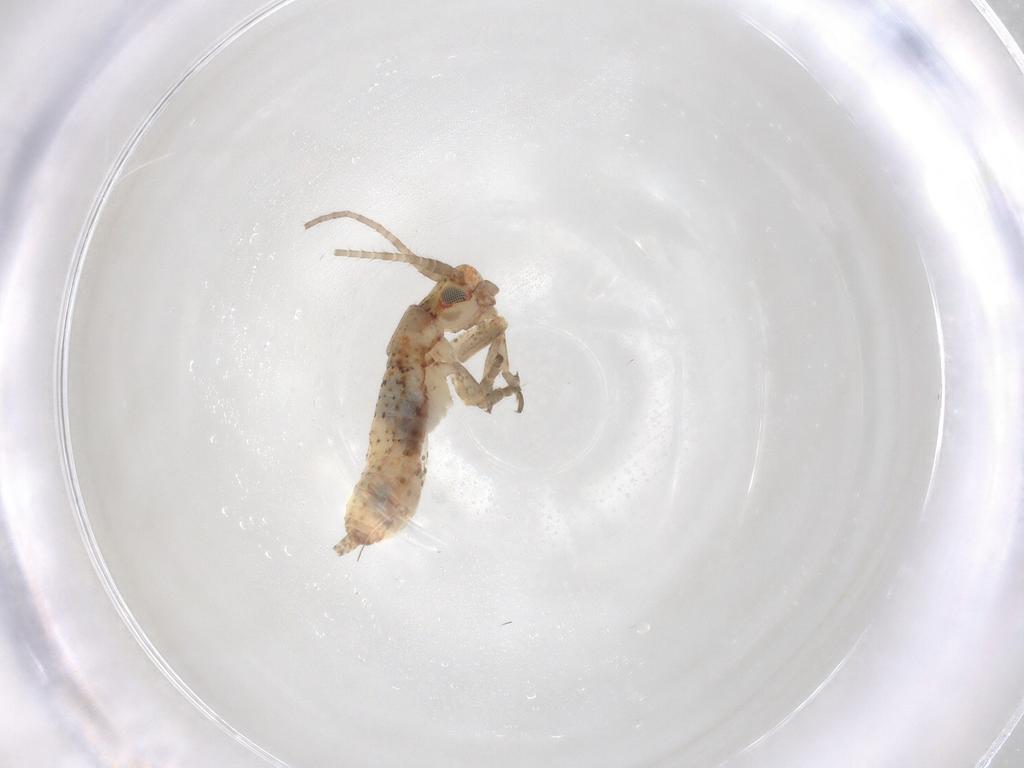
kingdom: Animalia
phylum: Arthropoda
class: Insecta
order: Orthoptera
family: Mogoplistidae
